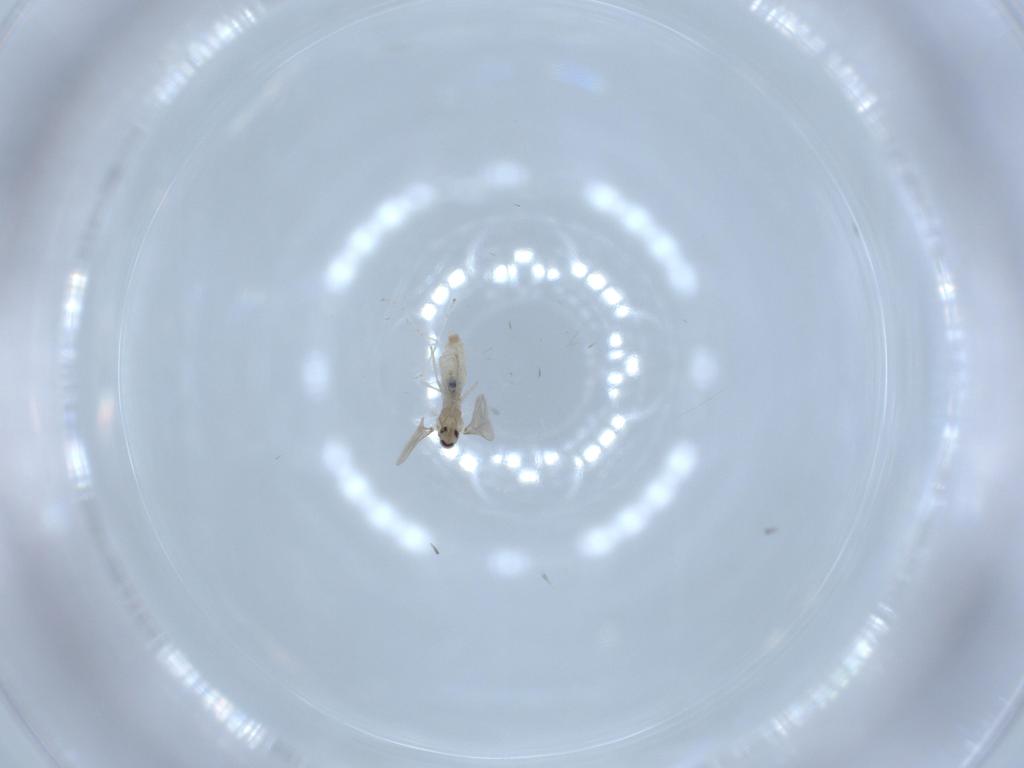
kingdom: Animalia
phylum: Arthropoda
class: Insecta
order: Diptera
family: Cecidomyiidae
